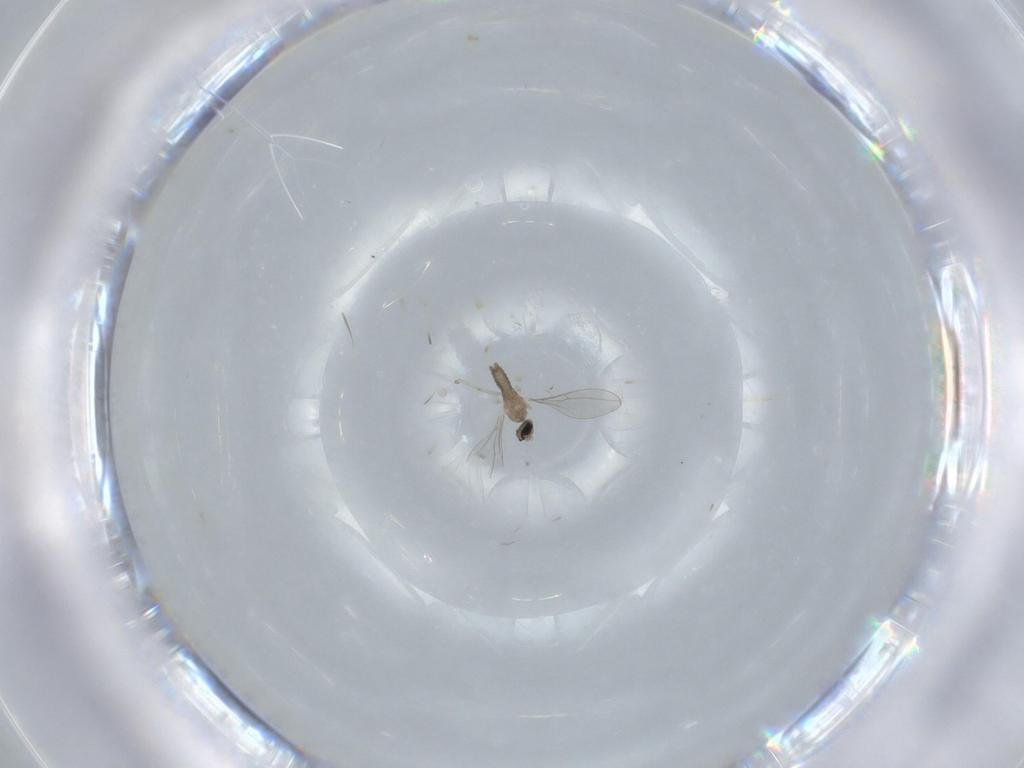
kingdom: Animalia
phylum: Arthropoda
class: Insecta
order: Diptera
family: Cecidomyiidae
